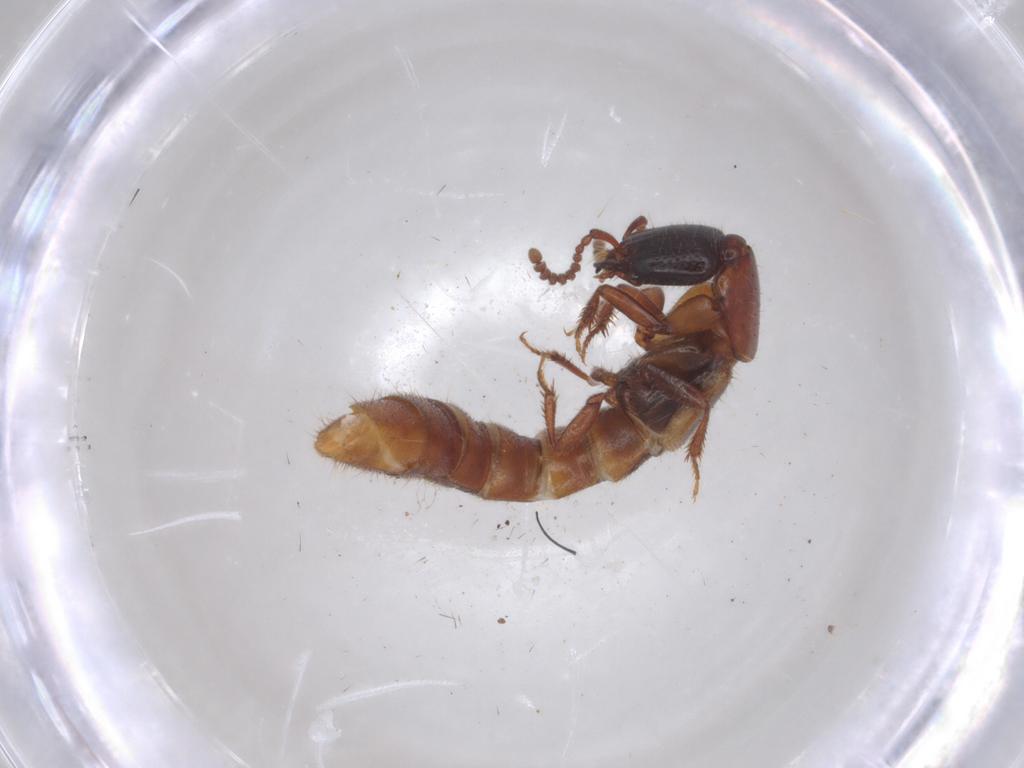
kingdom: Animalia
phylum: Arthropoda
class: Insecta
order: Coleoptera
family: Staphylinidae
